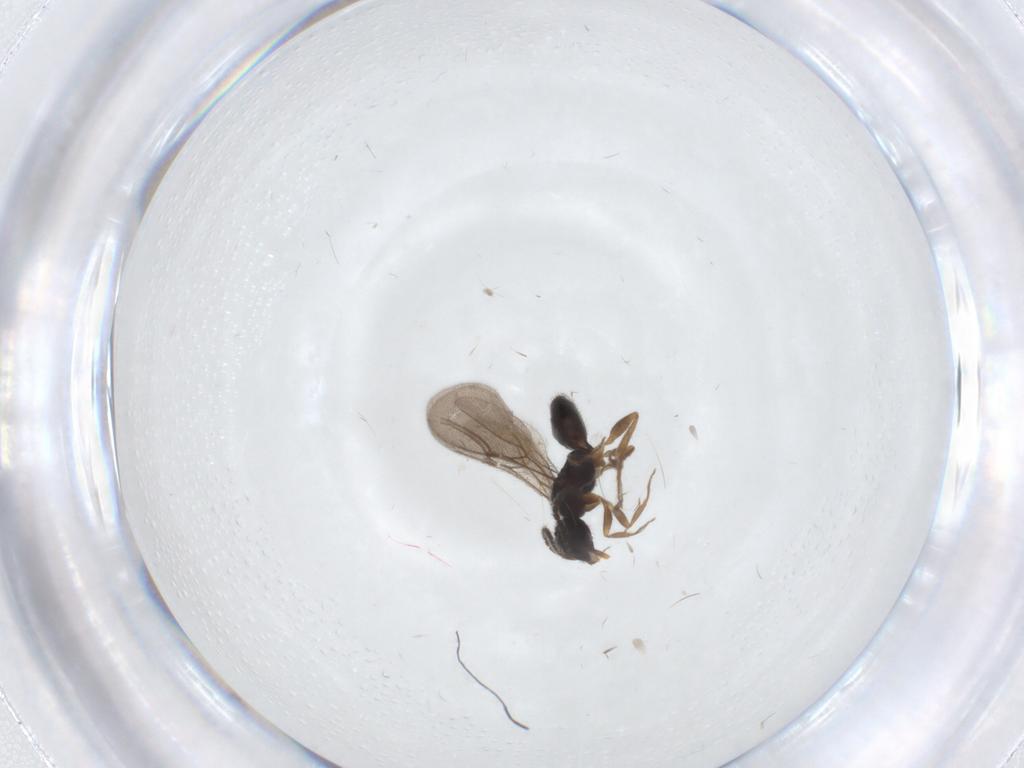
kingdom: Animalia
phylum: Arthropoda
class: Insecta
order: Hymenoptera
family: Bethylidae
